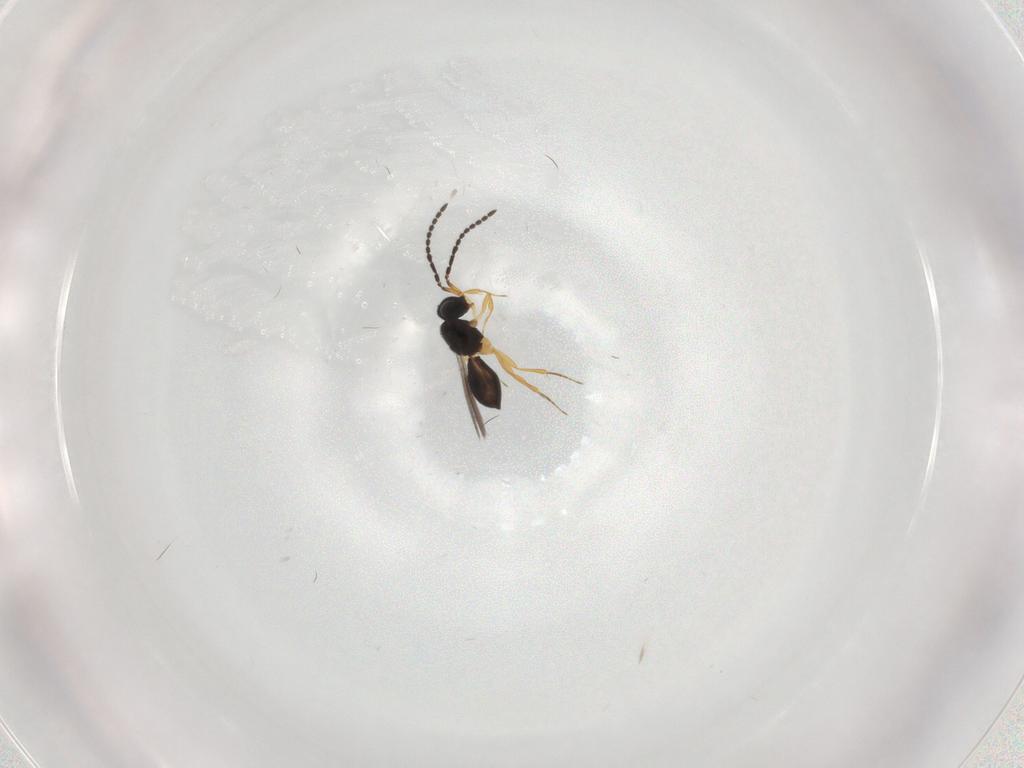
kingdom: Animalia
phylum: Arthropoda
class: Insecta
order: Hymenoptera
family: Scelionidae
